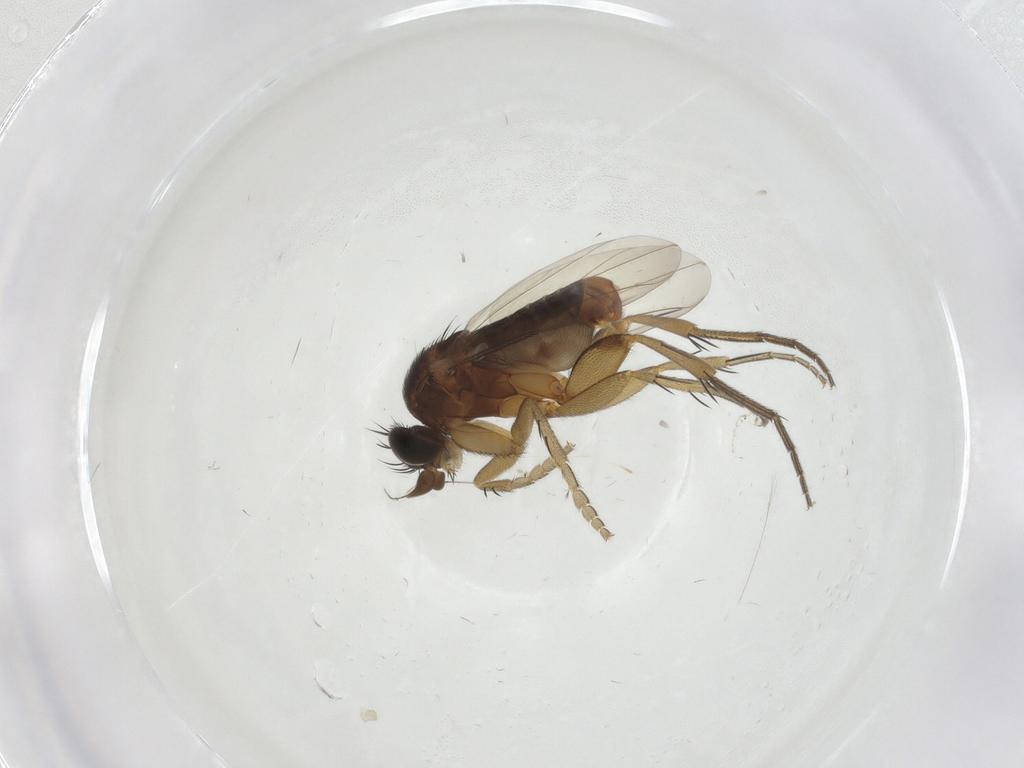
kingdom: Animalia
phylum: Arthropoda
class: Insecta
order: Diptera
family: Phoridae
